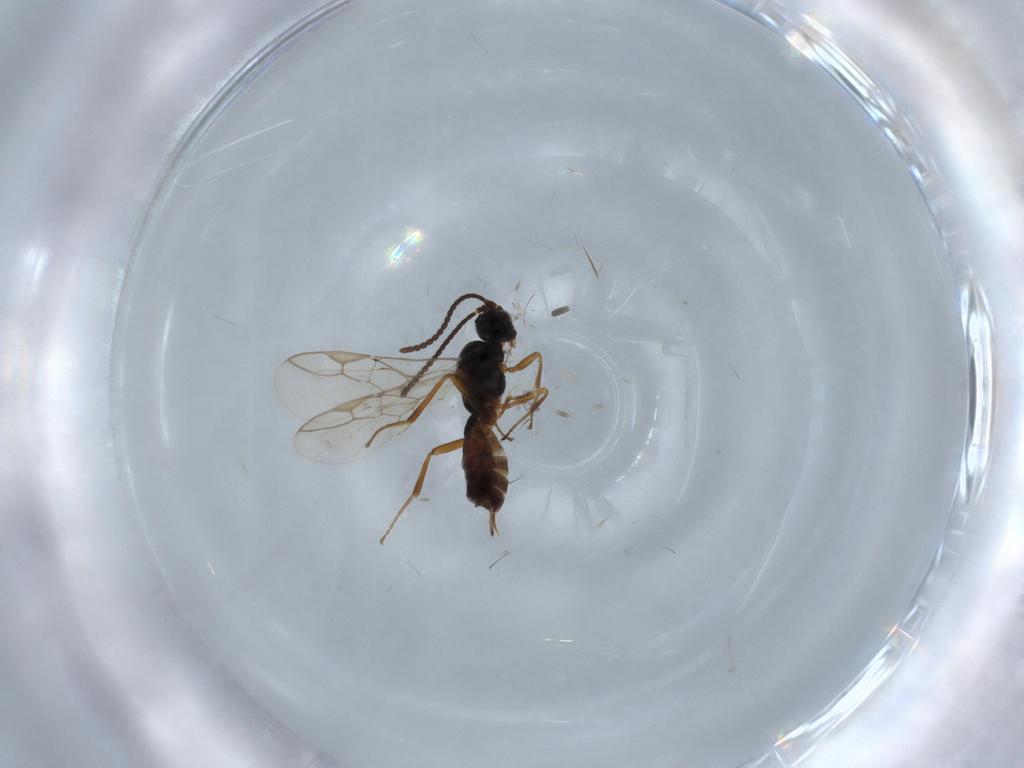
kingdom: Animalia
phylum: Arthropoda
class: Insecta
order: Hymenoptera
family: Braconidae
